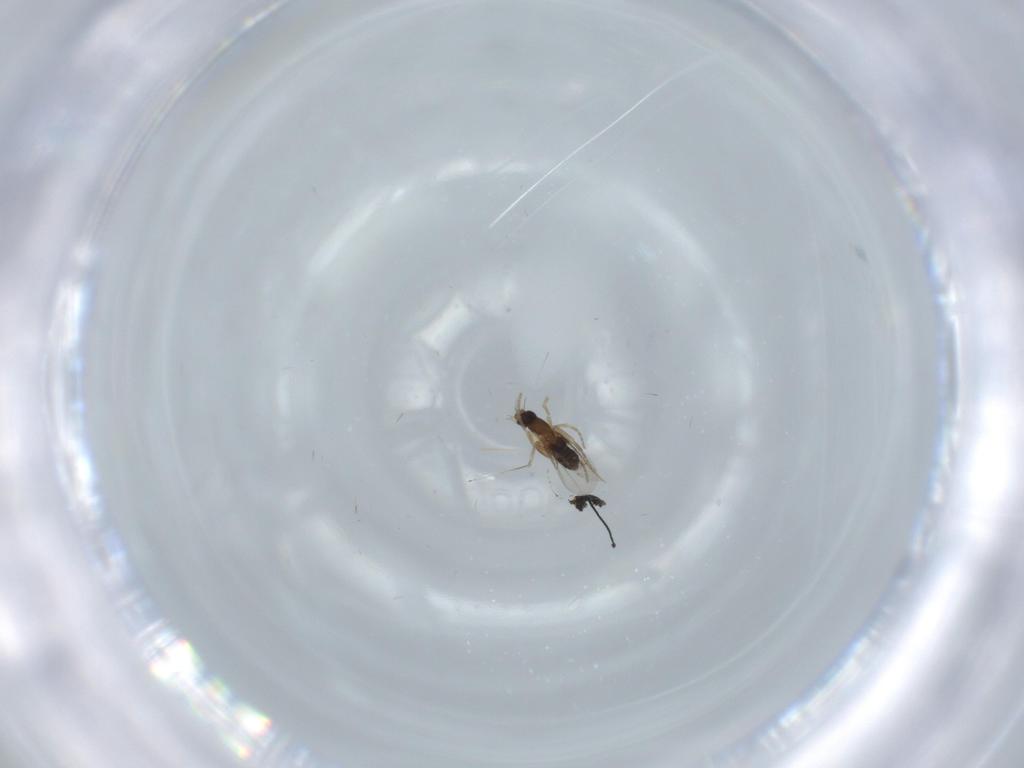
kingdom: Animalia
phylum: Arthropoda
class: Insecta
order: Diptera
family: Phoridae
